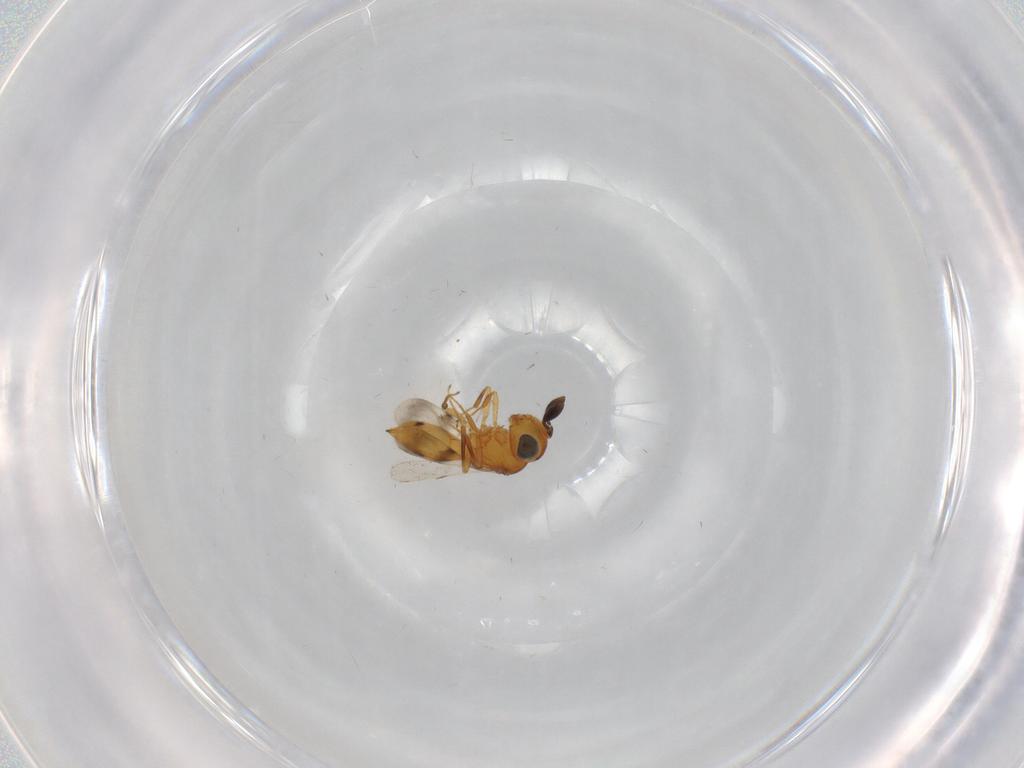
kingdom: Animalia
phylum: Arthropoda
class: Insecta
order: Hymenoptera
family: Scelionidae
